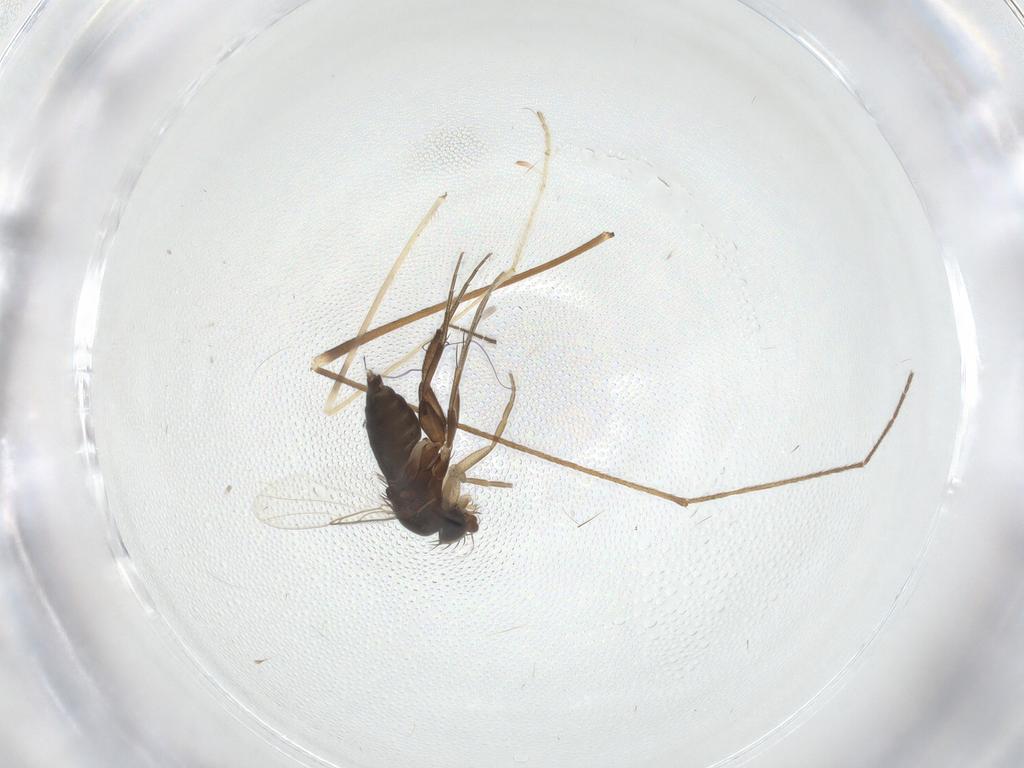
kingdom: Animalia
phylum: Arthropoda
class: Insecta
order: Diptera
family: Phoridae
